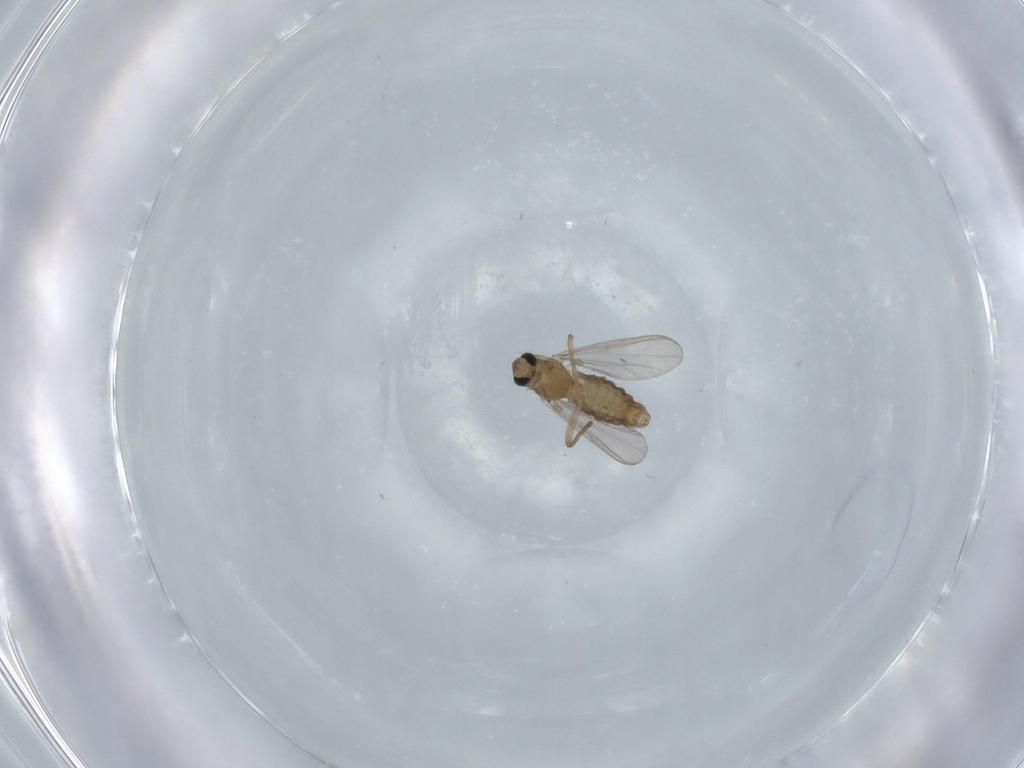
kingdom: Animalia
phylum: Arthropoda
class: Insecta
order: Diptera
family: Chironomidae
